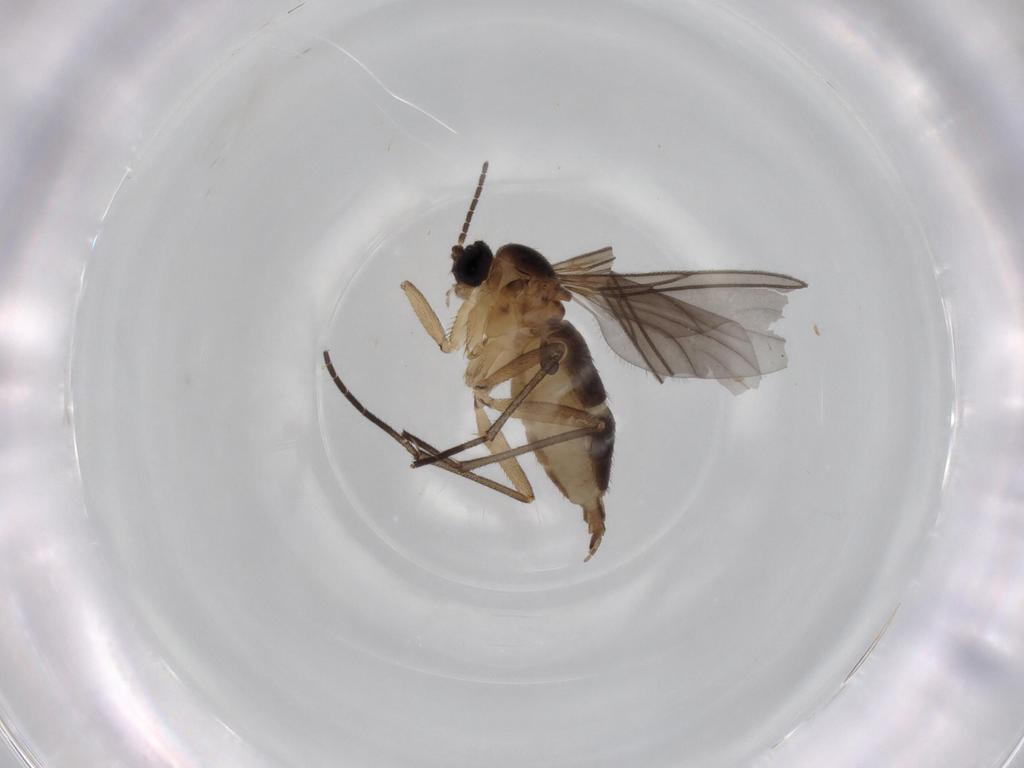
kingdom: Animalia
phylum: Arthropoda
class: Insecta
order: Diptera
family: Sciaridae
